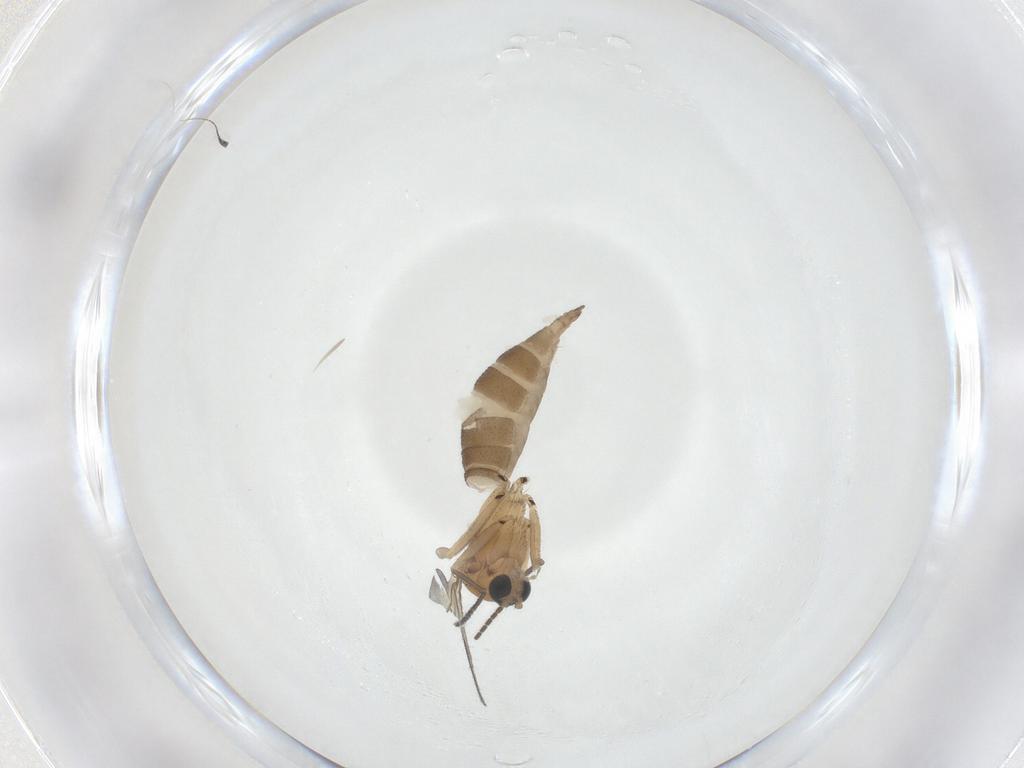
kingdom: Animalia
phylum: Arthropoda
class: Insecta
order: Diptera
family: Sciaridae
